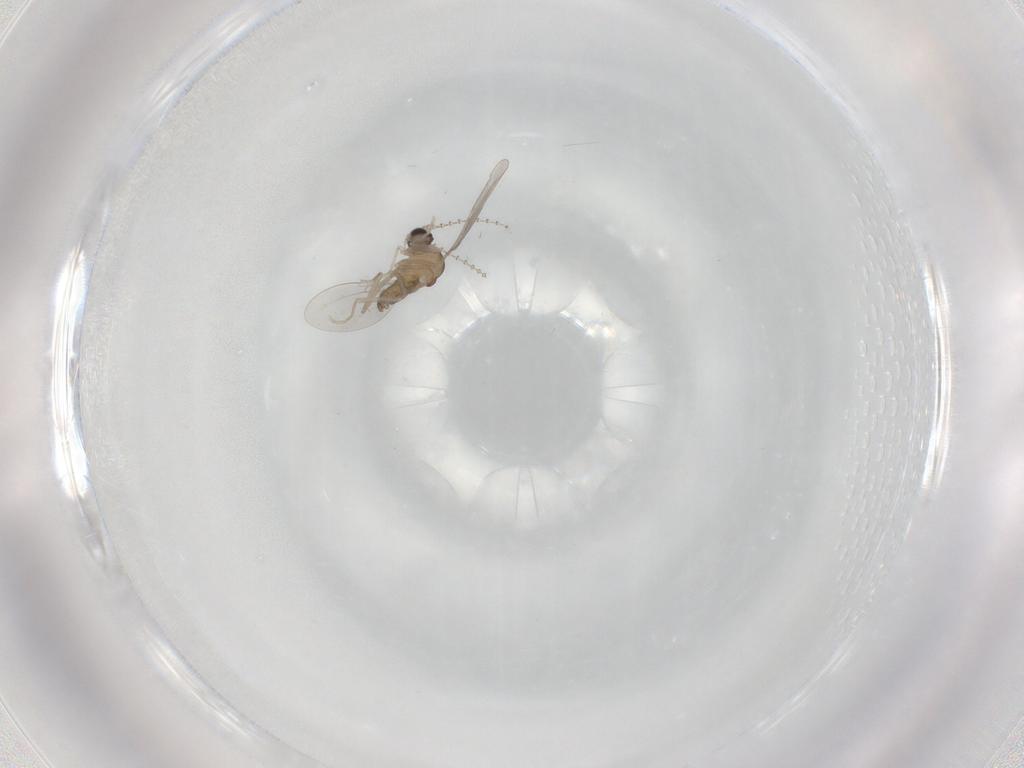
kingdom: Animalia
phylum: Arthropoda
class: Insecta
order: Diptera
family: Cecidomyiidae
